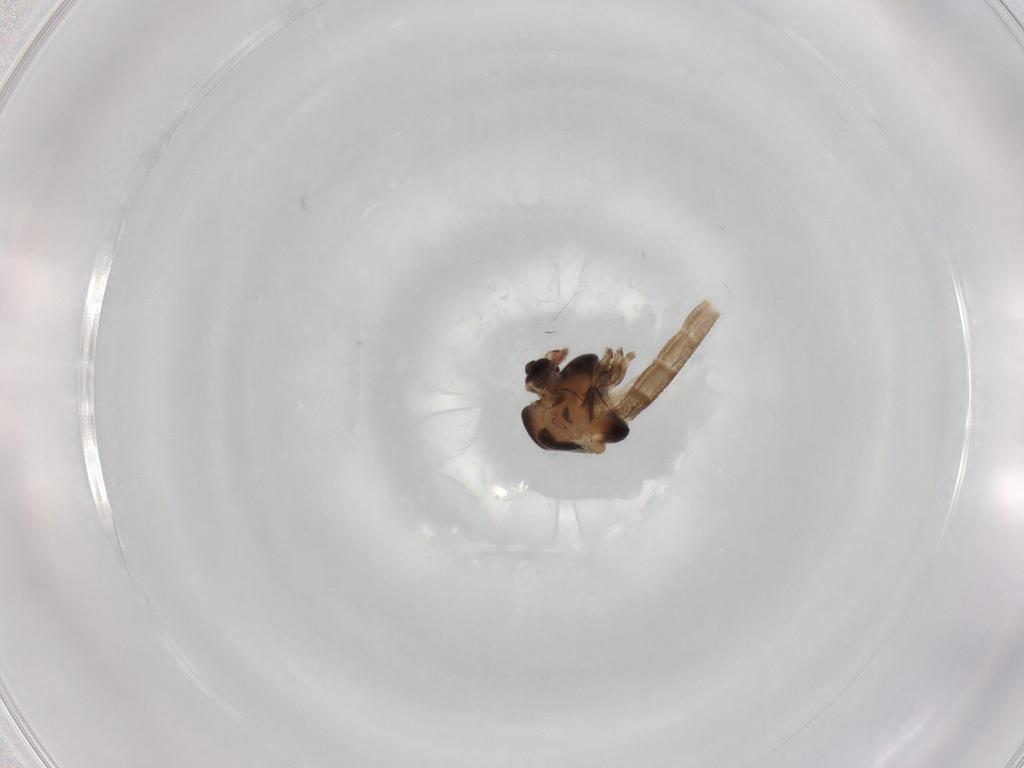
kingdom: Animalia
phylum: Arthropoda
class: Insecta
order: Diptera
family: Chironomidae
